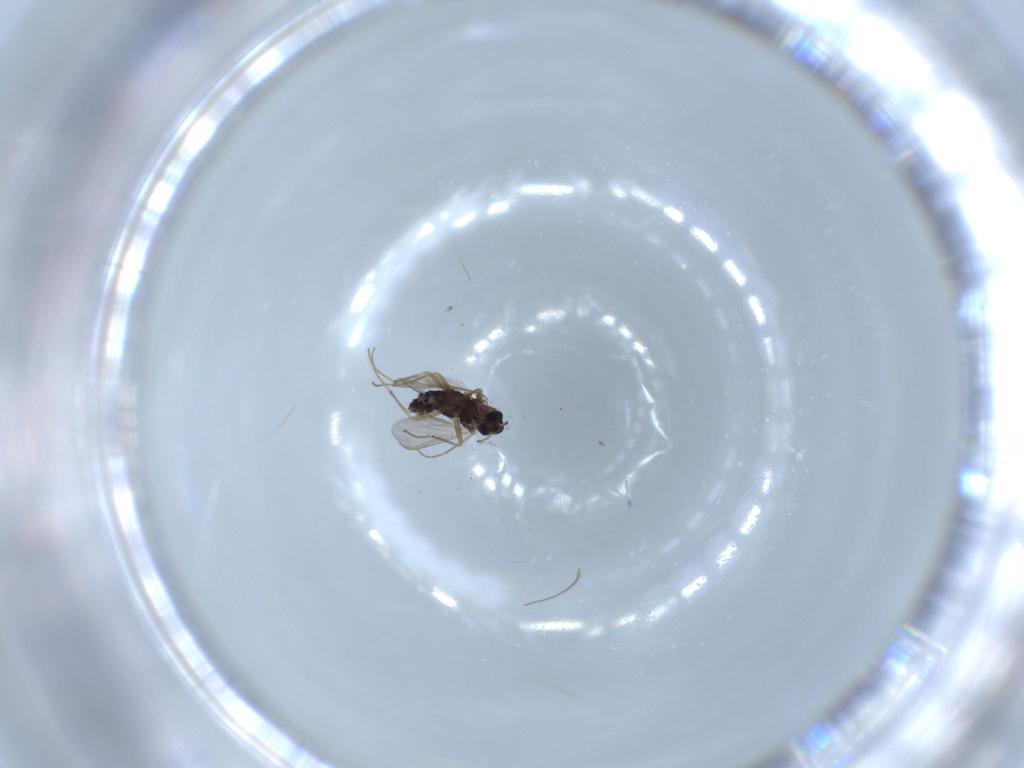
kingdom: Animalia
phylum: Arthropoda
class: Insecta
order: Diptera
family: Chironomidae
